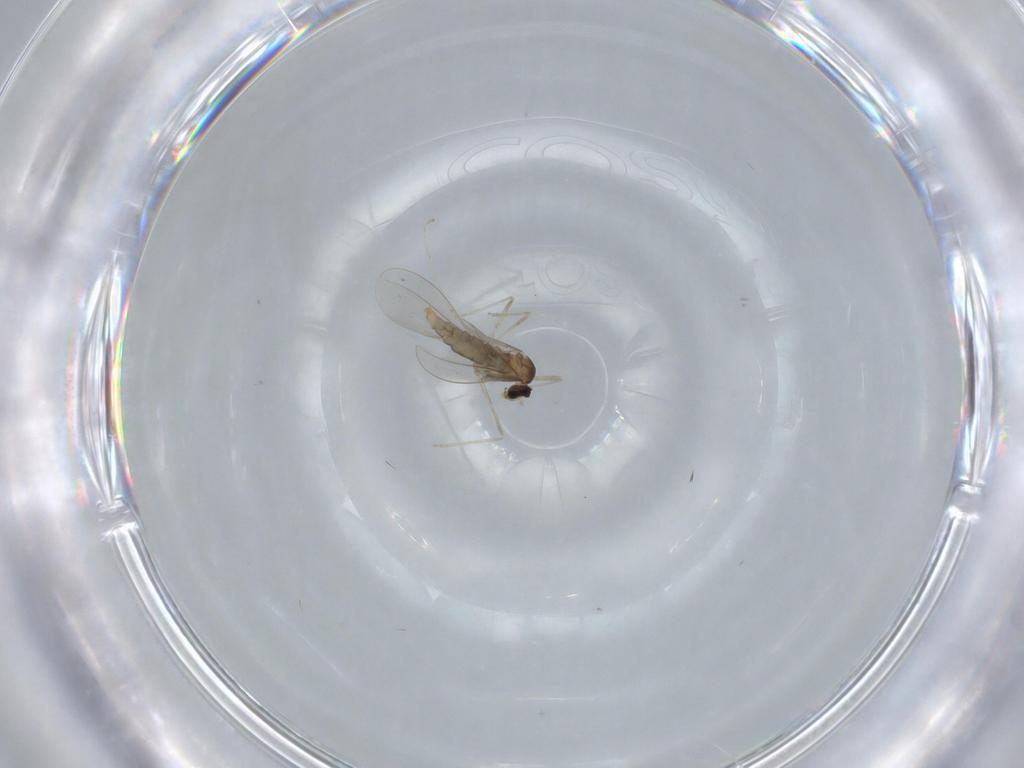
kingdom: Animalia
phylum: Arthropoda
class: Insecta
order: Diptera
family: Cecidomyiidae
